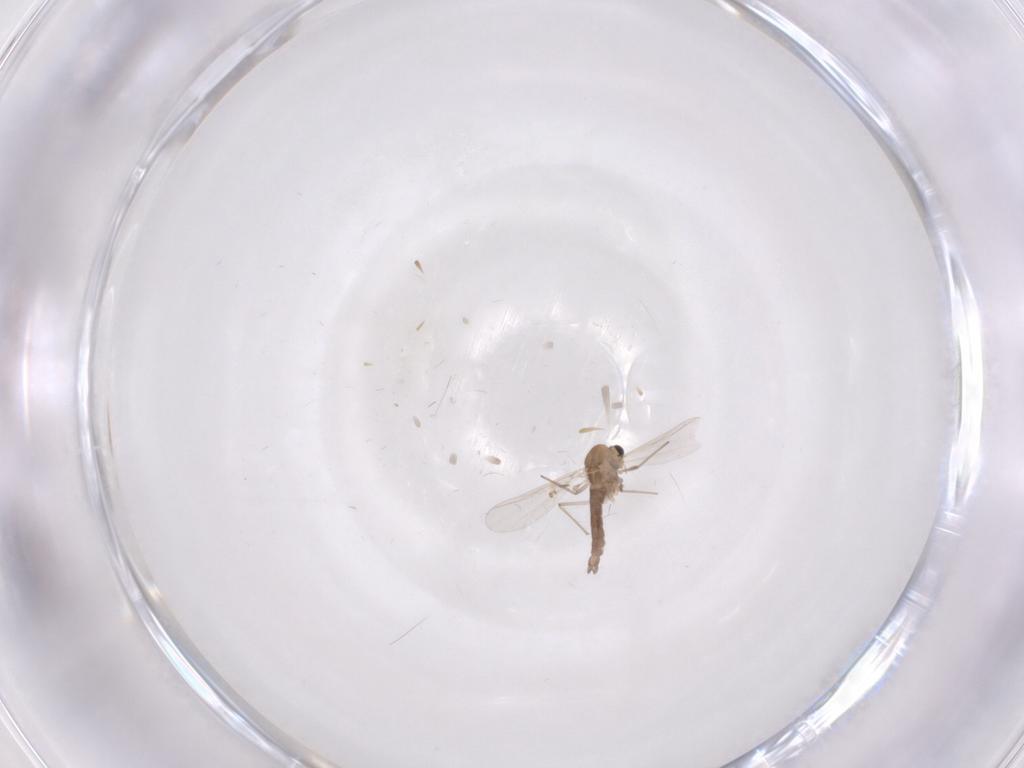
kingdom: Animalia
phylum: Arthropoda
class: Insecta
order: Diptera
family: Chironomidae
